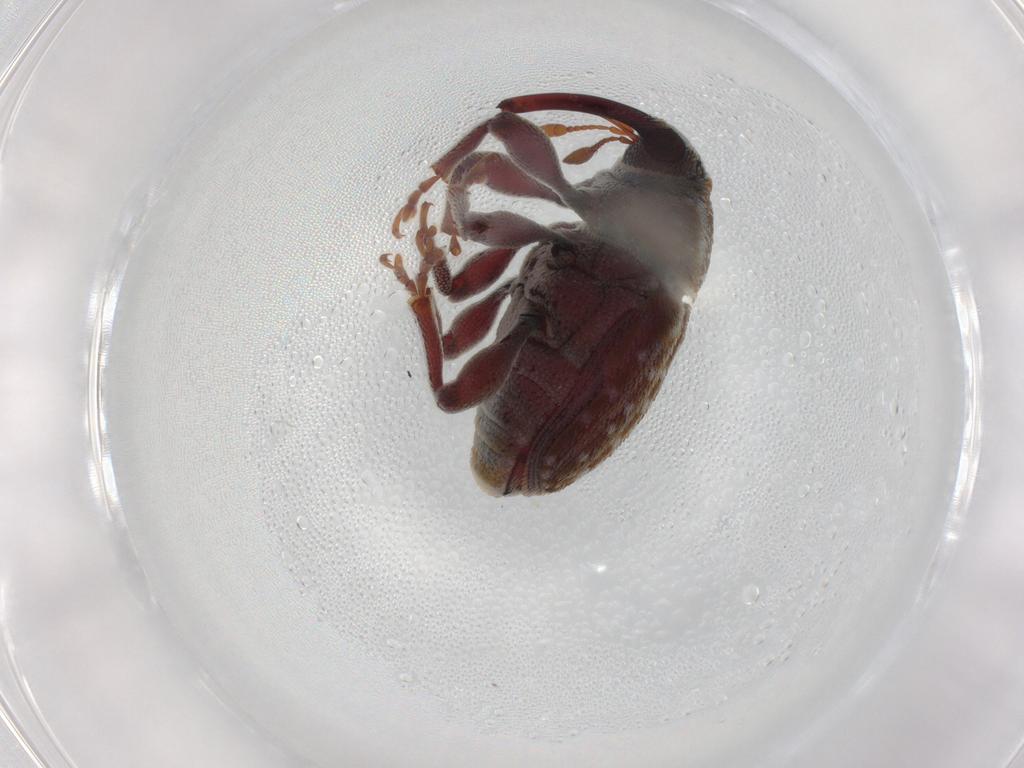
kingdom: Animalia
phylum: Arthropoda
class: Insecta
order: Coleoptera
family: Curculionidae
